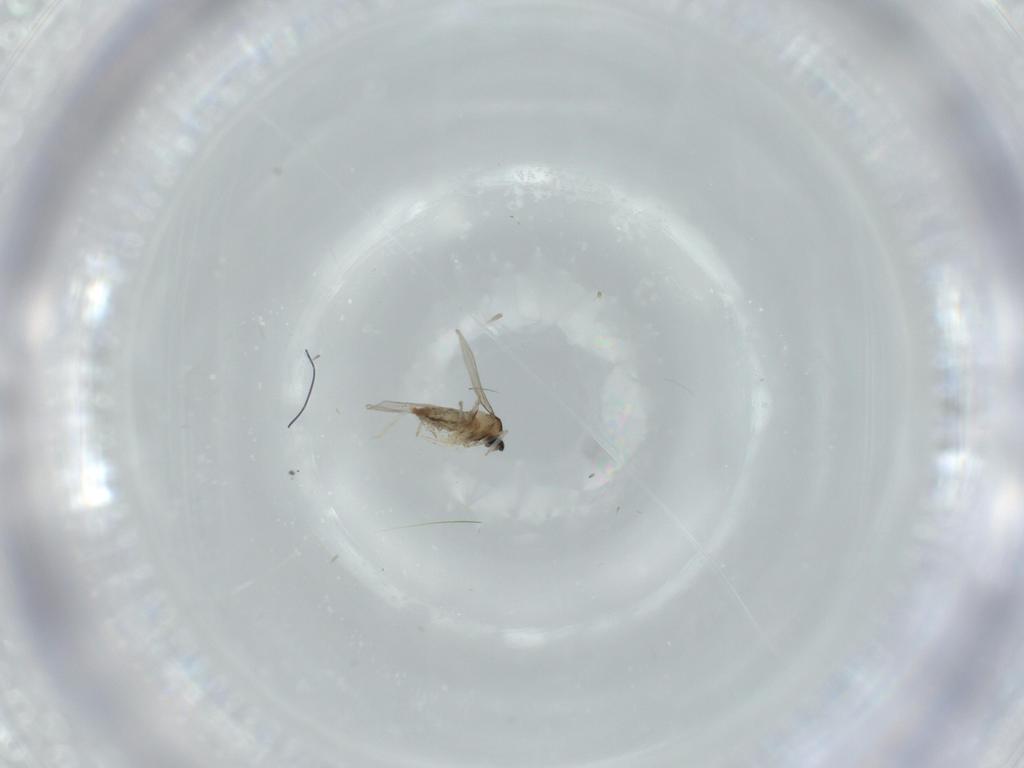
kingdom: Animalia
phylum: Arthropoda
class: Insecta
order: Diptera
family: Milichiidae
